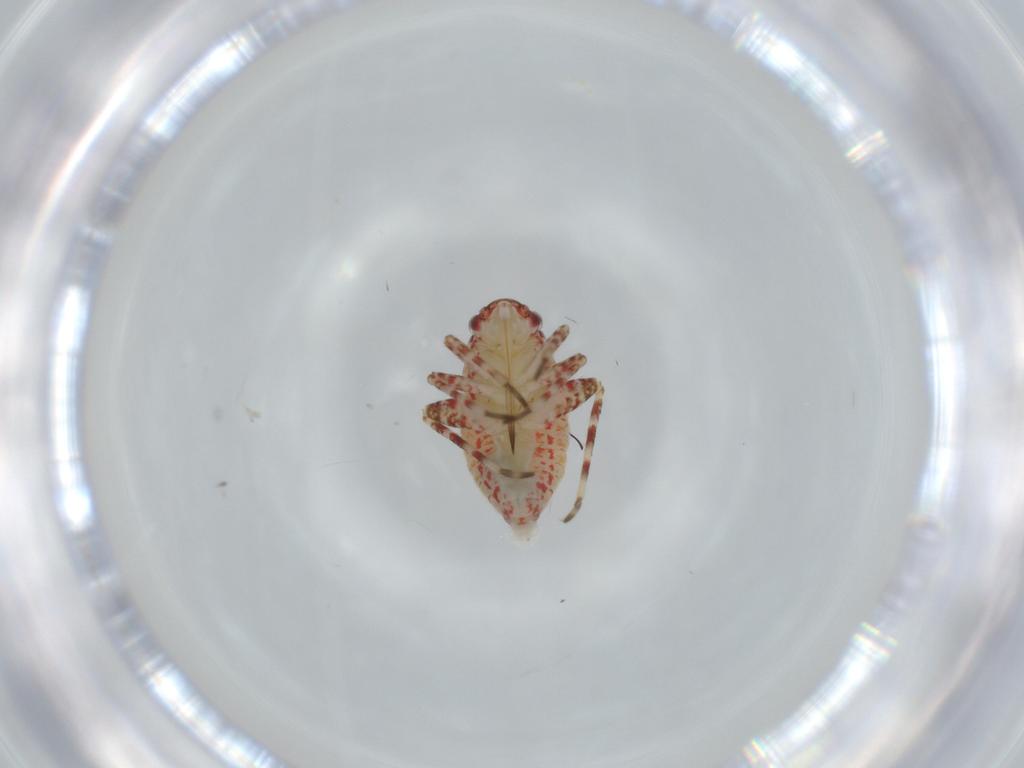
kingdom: Animalia
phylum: Arthropoda
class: Insecta
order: Hemiptera
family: Miridae
